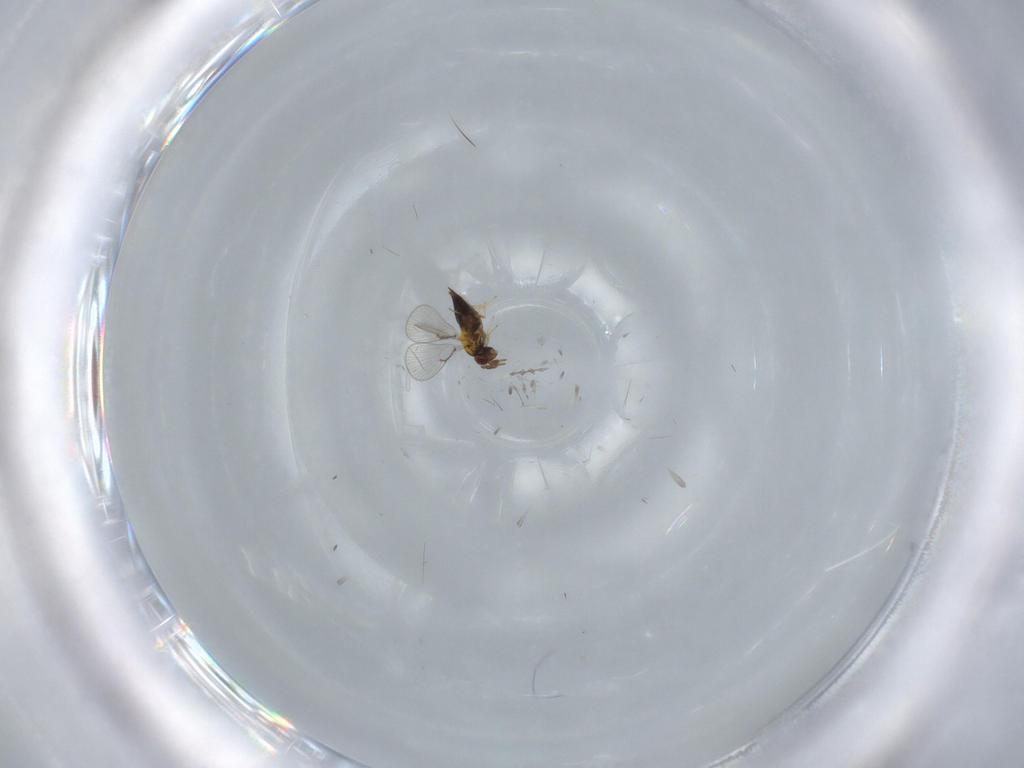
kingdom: Animalia
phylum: Arthropoda
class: Insecta
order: Hymenoptera
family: Trichogrammatidae
